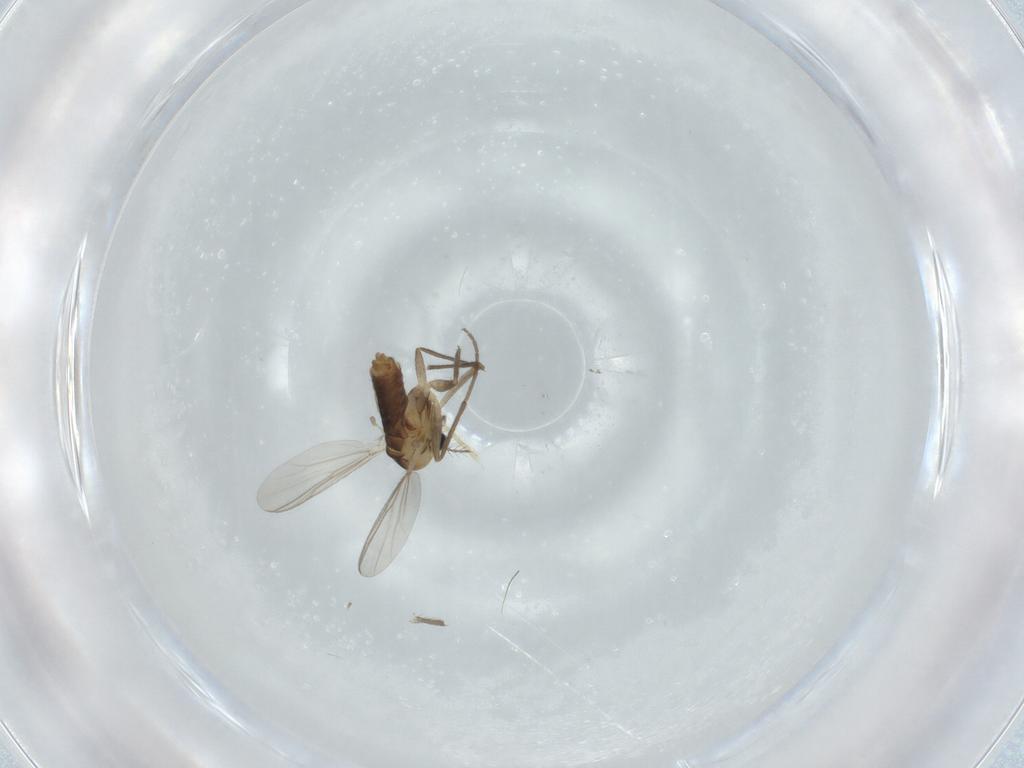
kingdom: Animalia
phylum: Arthropoda
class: Insecta
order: Diptera
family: Chironomidae
